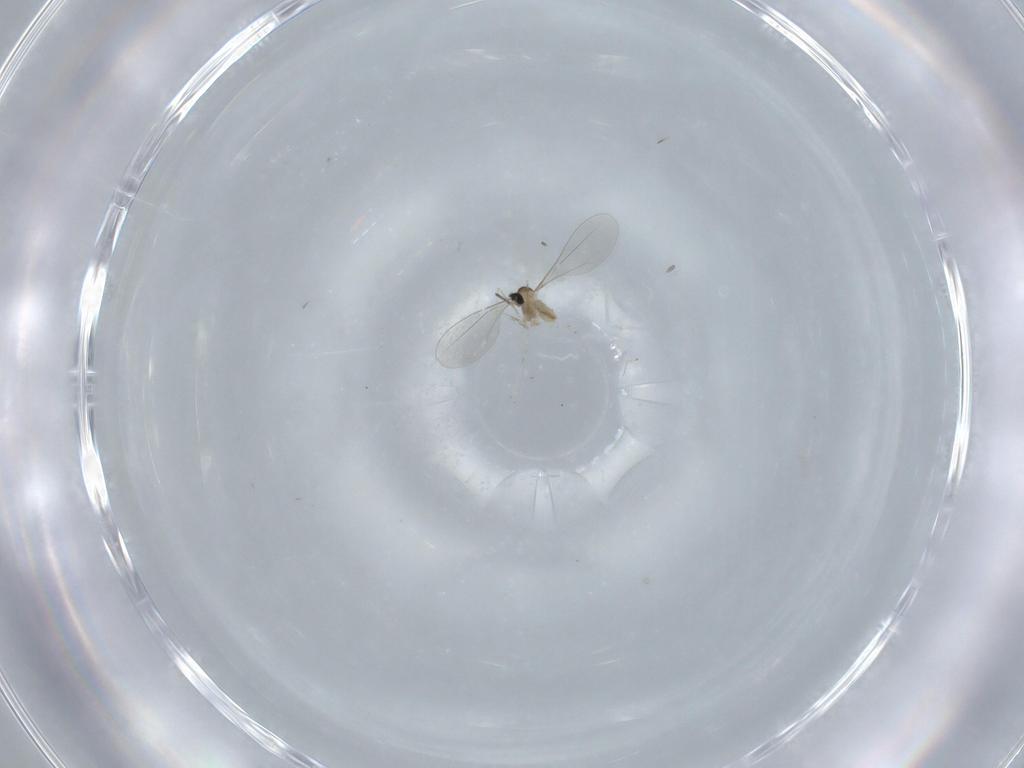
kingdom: Animalia
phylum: Arthropoda
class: Insecta
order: Diptera
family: Cecidomyiidae
